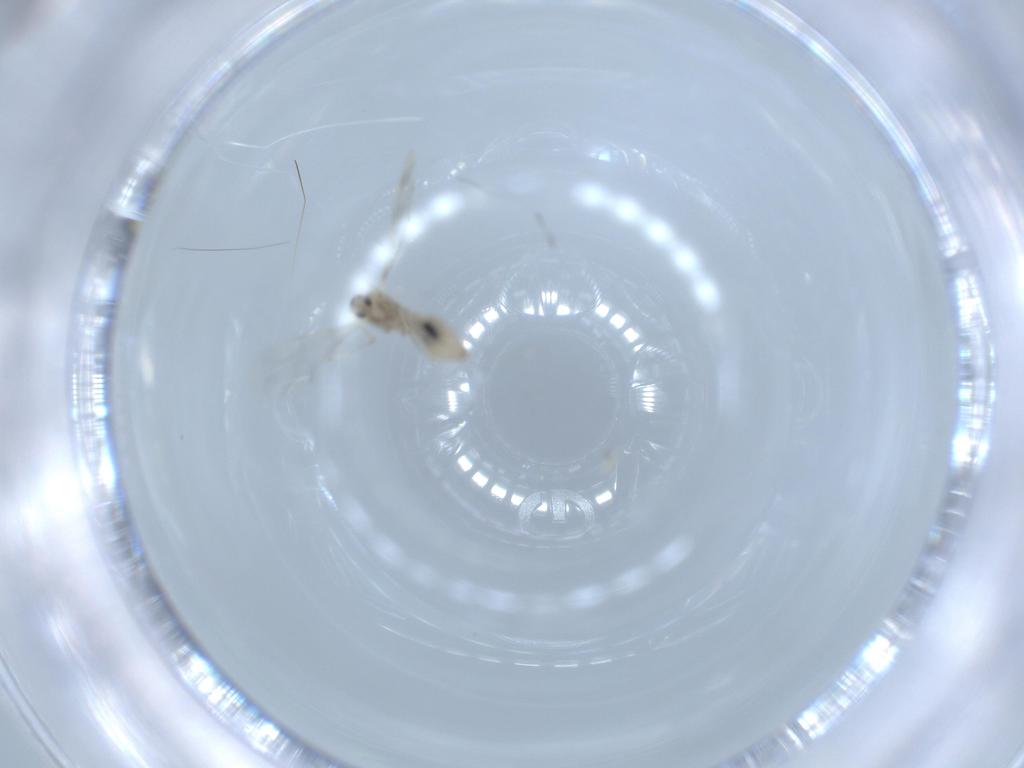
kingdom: Animalia
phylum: Arthropoda
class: Insecta
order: Diptera
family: Cecidomyiidae
